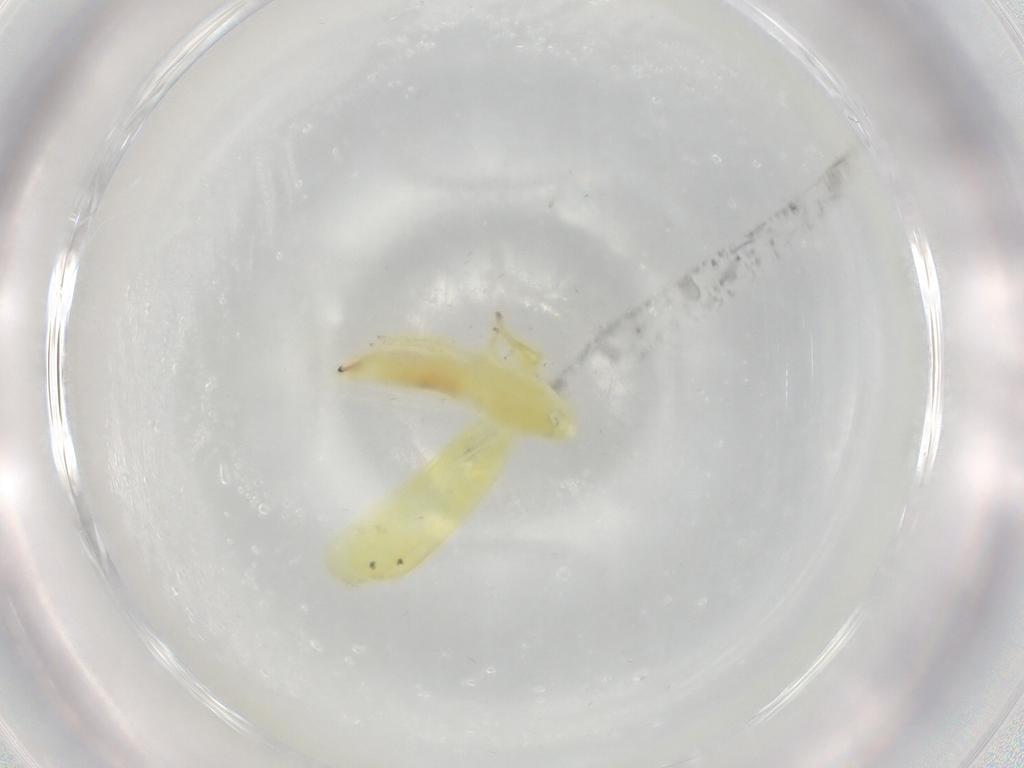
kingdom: Animalia
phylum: Arthropoda
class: Insecta
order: Hemiptera
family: Cicadellidae
